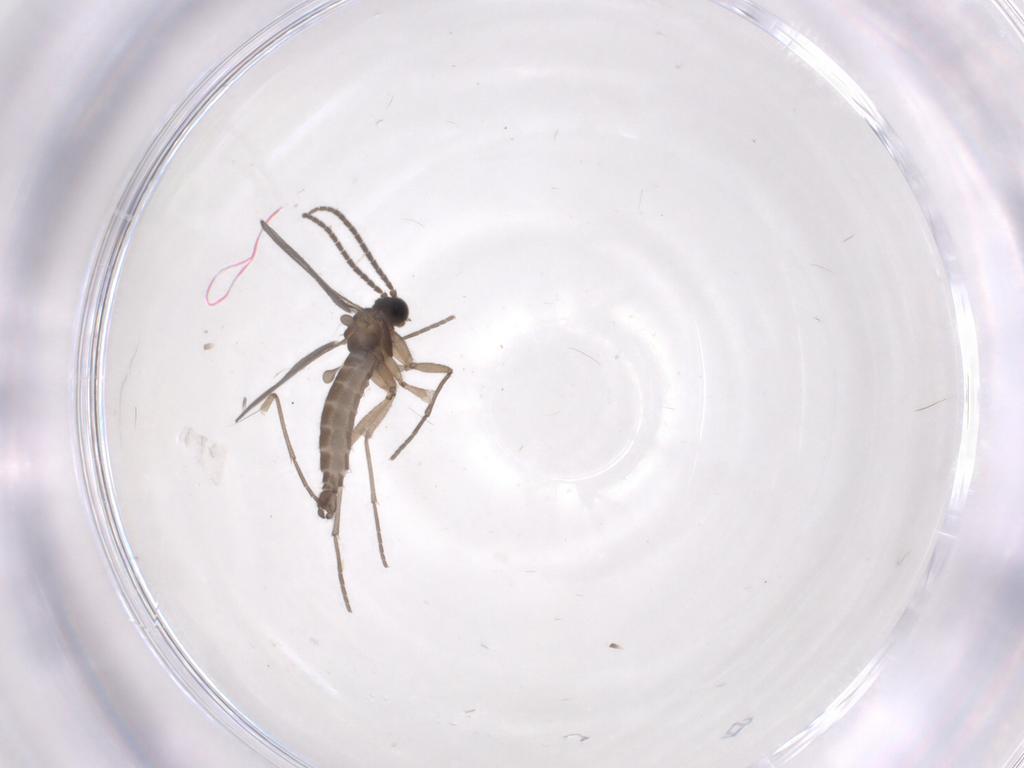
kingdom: Animalia
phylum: Arthropoda
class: Insecta
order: Diptera
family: Sciaridae
